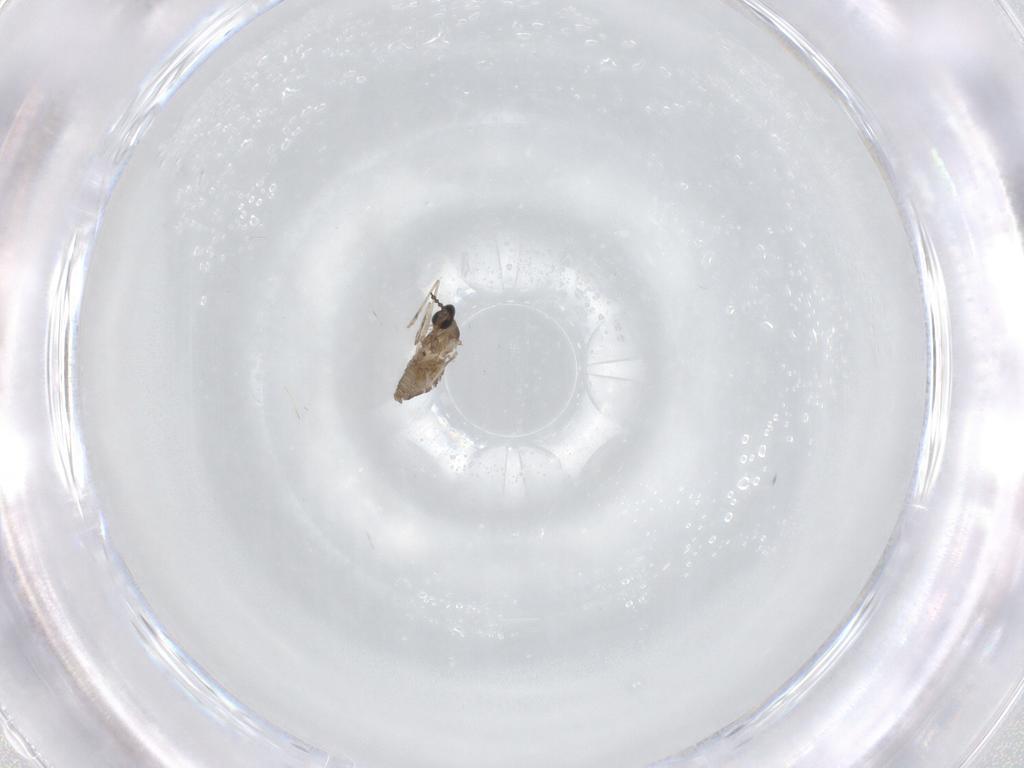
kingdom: Animalia
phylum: Arthropoda
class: Insecta
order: Diptera
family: Cecidomyiidae
